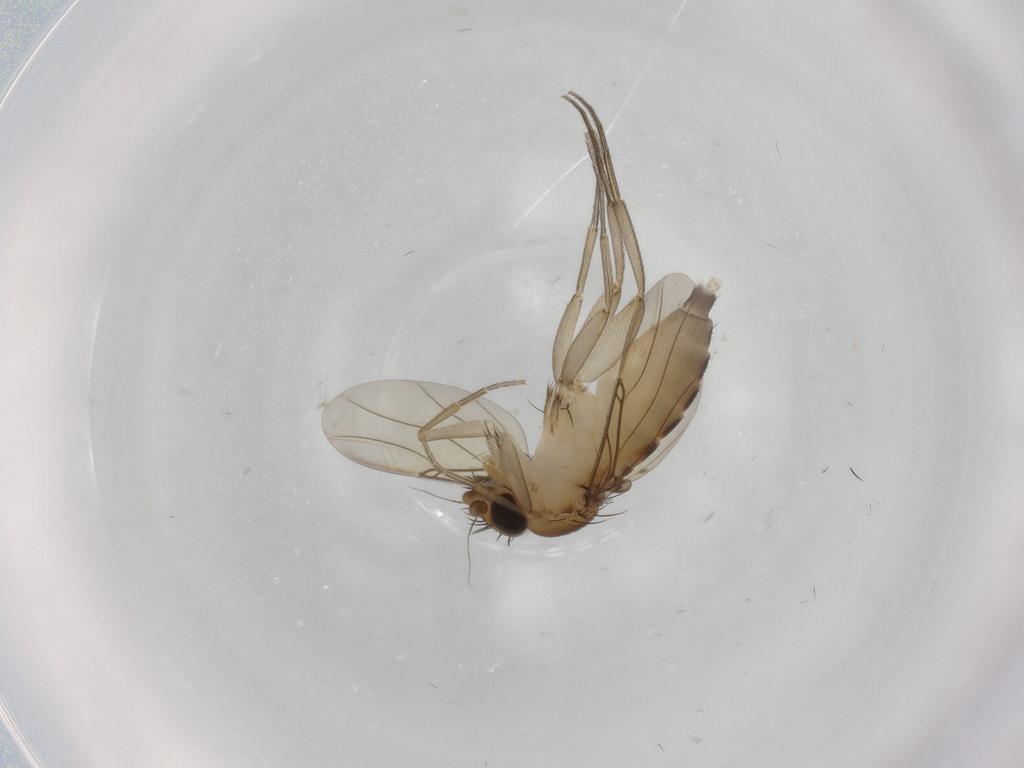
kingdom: Animalia
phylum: Arthropoda
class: Insecta
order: Diptera
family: Phoridae
